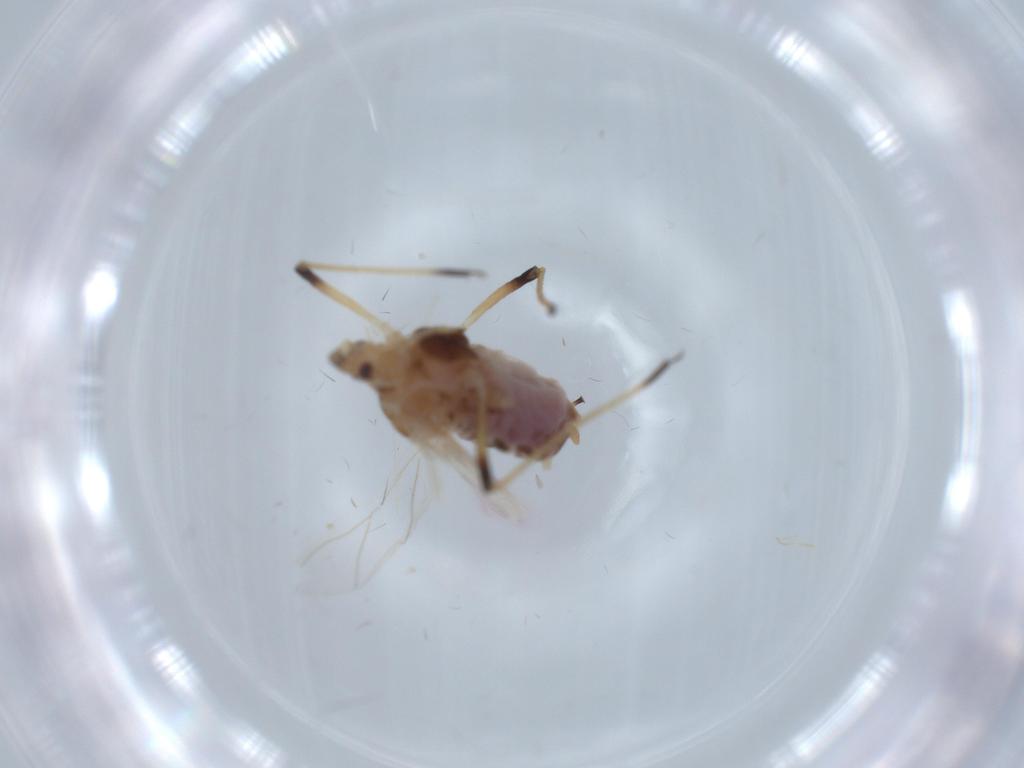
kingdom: Animalia
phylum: Arthropoda
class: Insecta
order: Hemiptera
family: Aphididae
